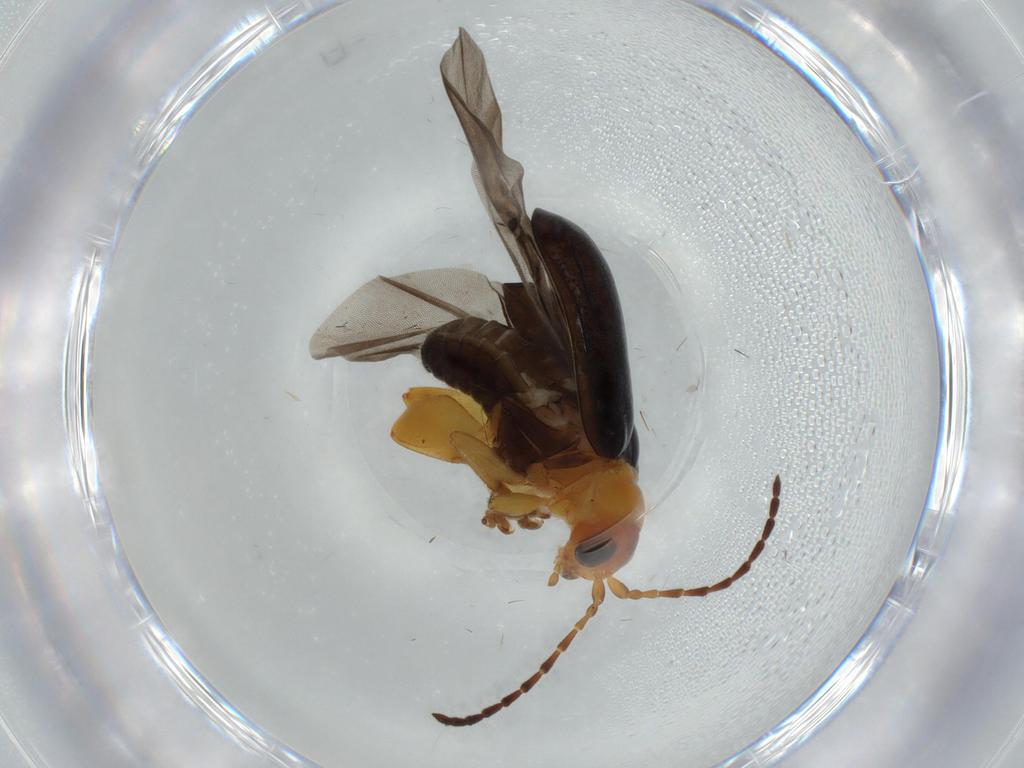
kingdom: Animalia
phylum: Arthropoda
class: Insecta
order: Coleoptera
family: Chrysomelidae
